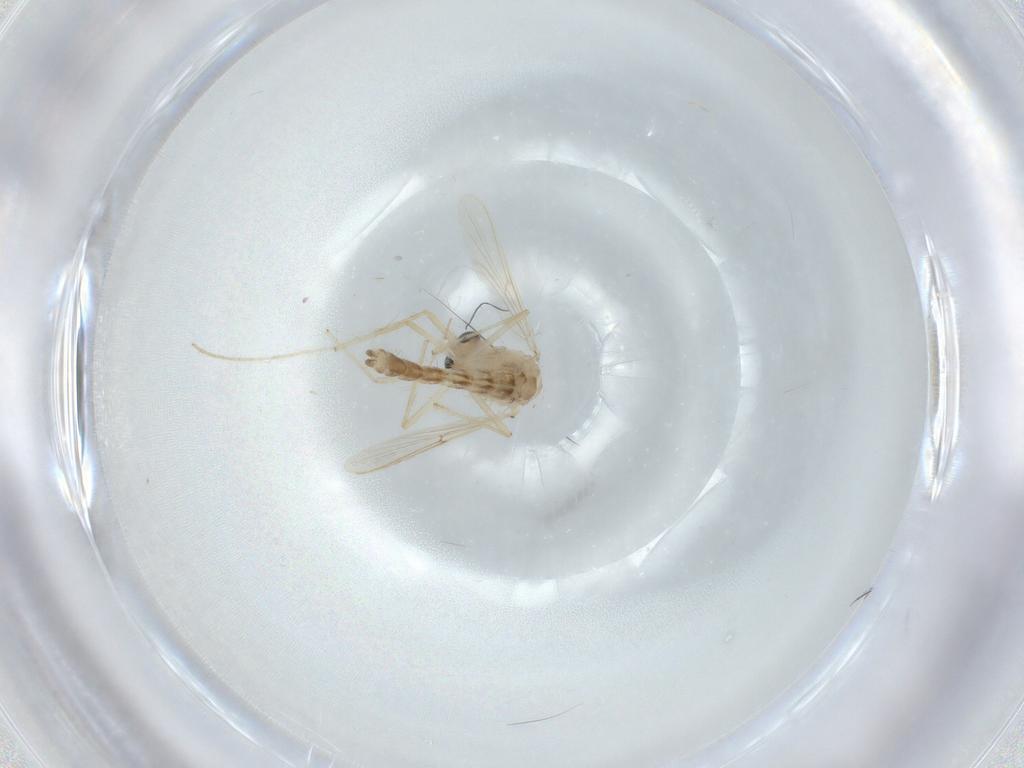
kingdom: Animalia
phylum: Arthropoda
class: Insecta
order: Diptera
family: Chironomidae
